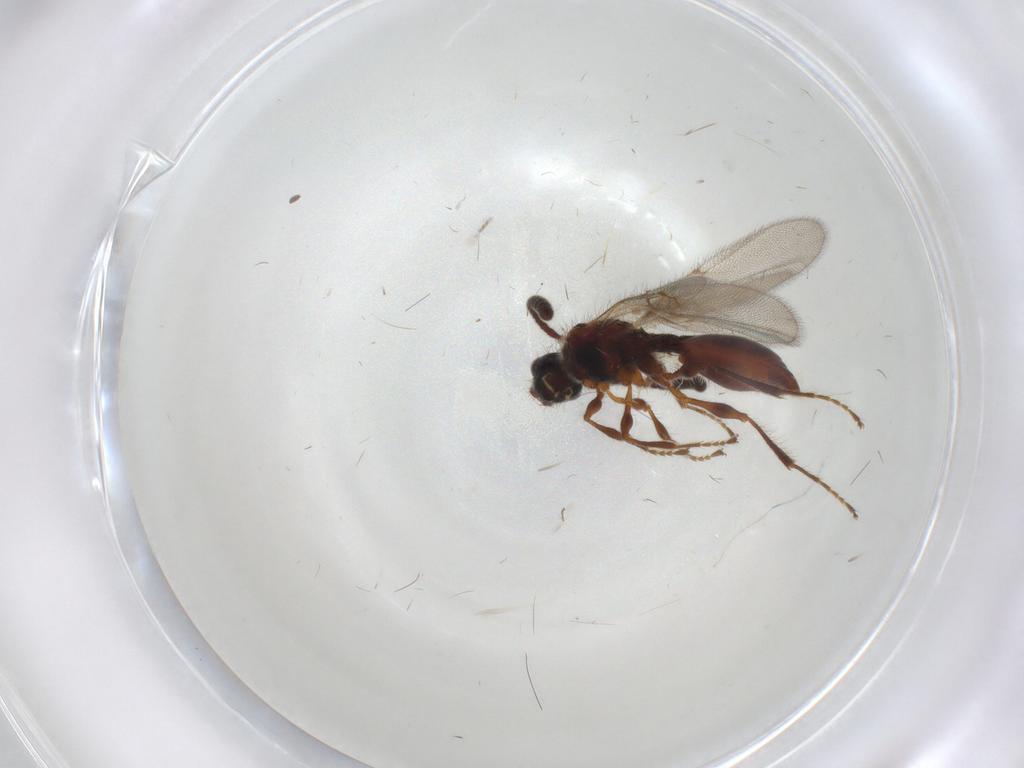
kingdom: Animalia
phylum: Arthropoda
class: Insecta
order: Hymenoptera
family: Diapriidae
